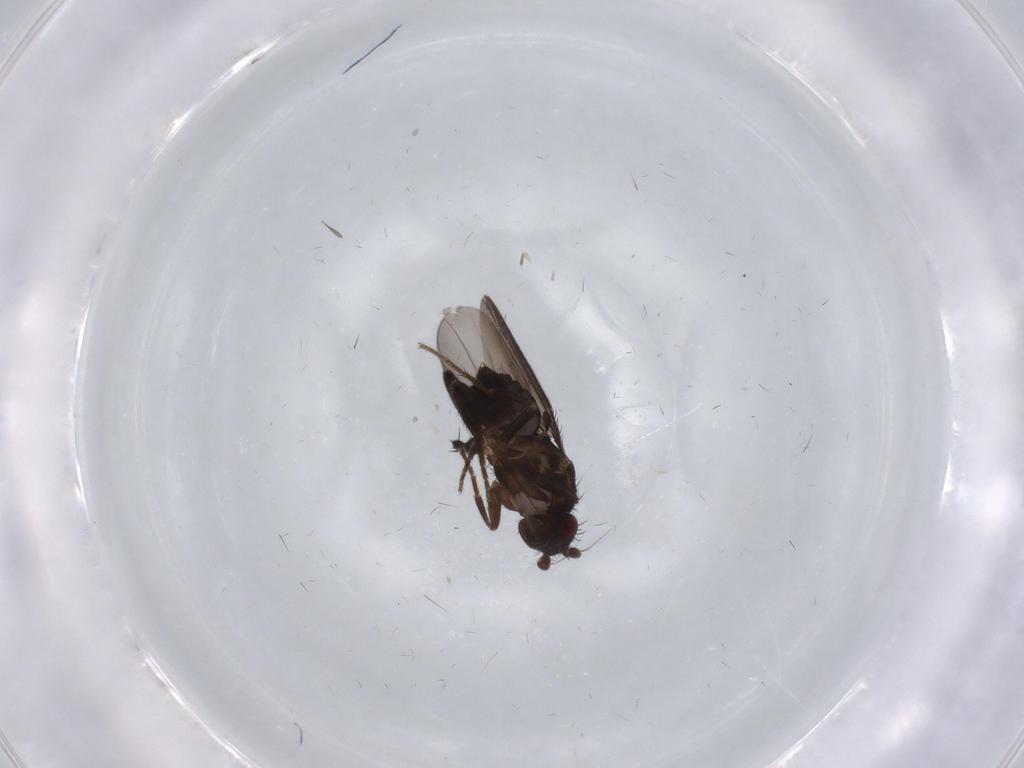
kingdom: Animalia
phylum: Arthropoda
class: Insecta
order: Diptera
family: Sphaeroceridae
